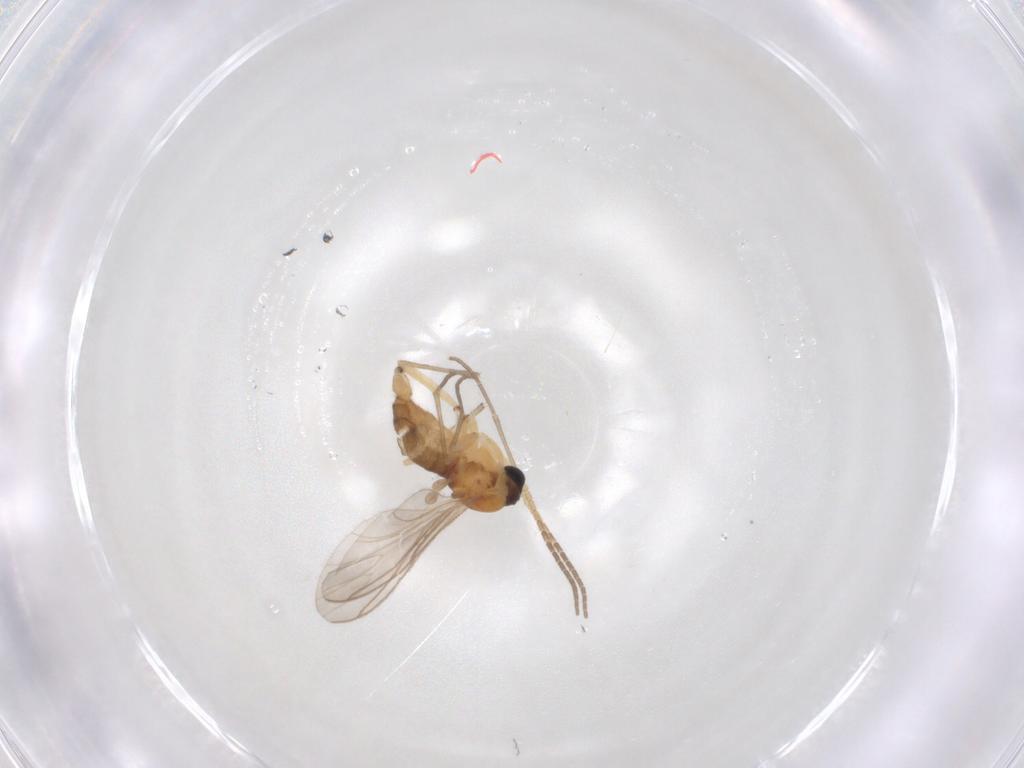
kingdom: Animalia
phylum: Arthropoda
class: Insecta
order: Diptera
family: Sciaridae
